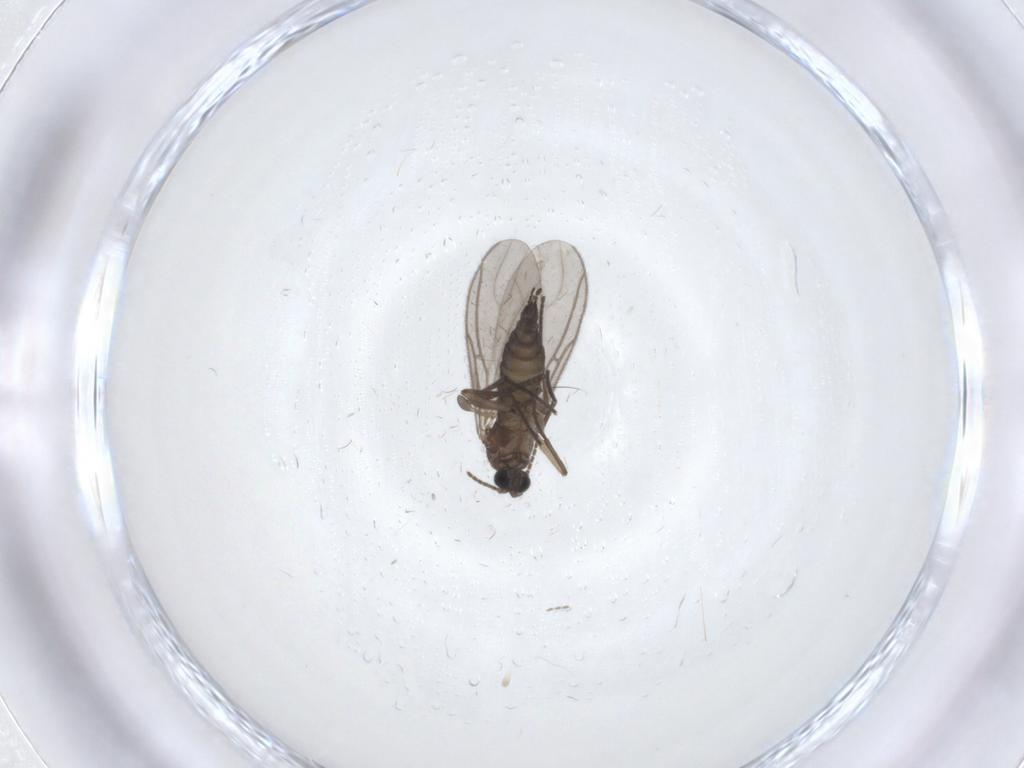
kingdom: Animalia
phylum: Arthropoda
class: Insecta
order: Diptera
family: Sciaridae
